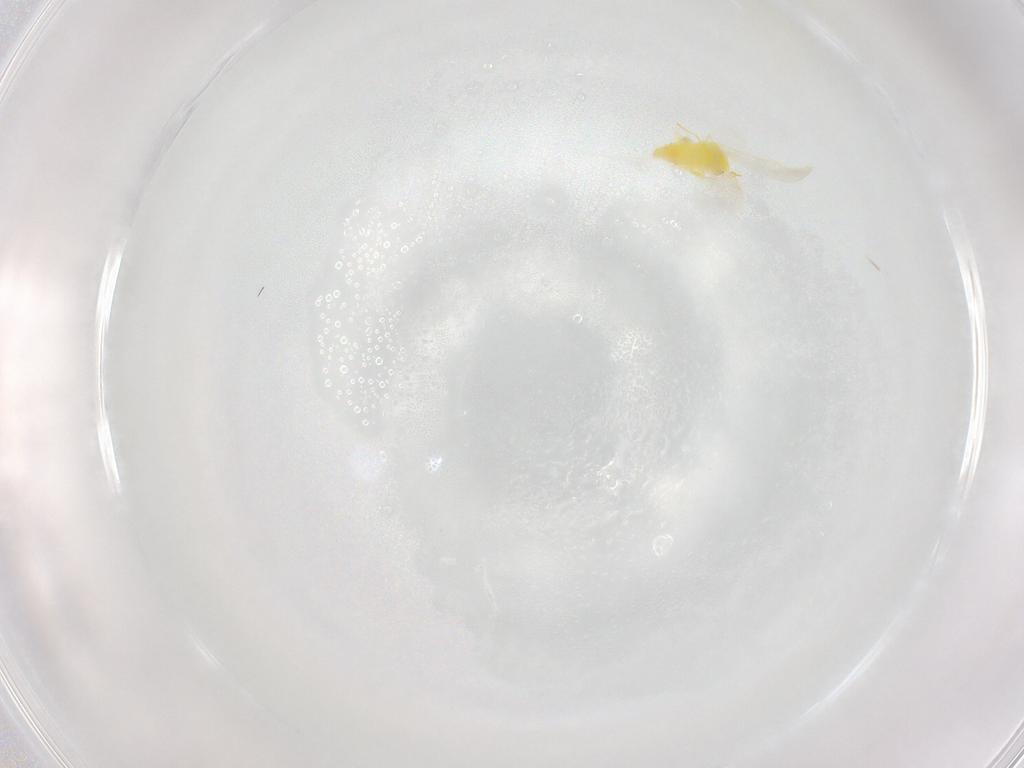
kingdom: Animalia
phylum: Arthropoda
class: Insecta
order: Hemiptera
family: Aleyrodidae
